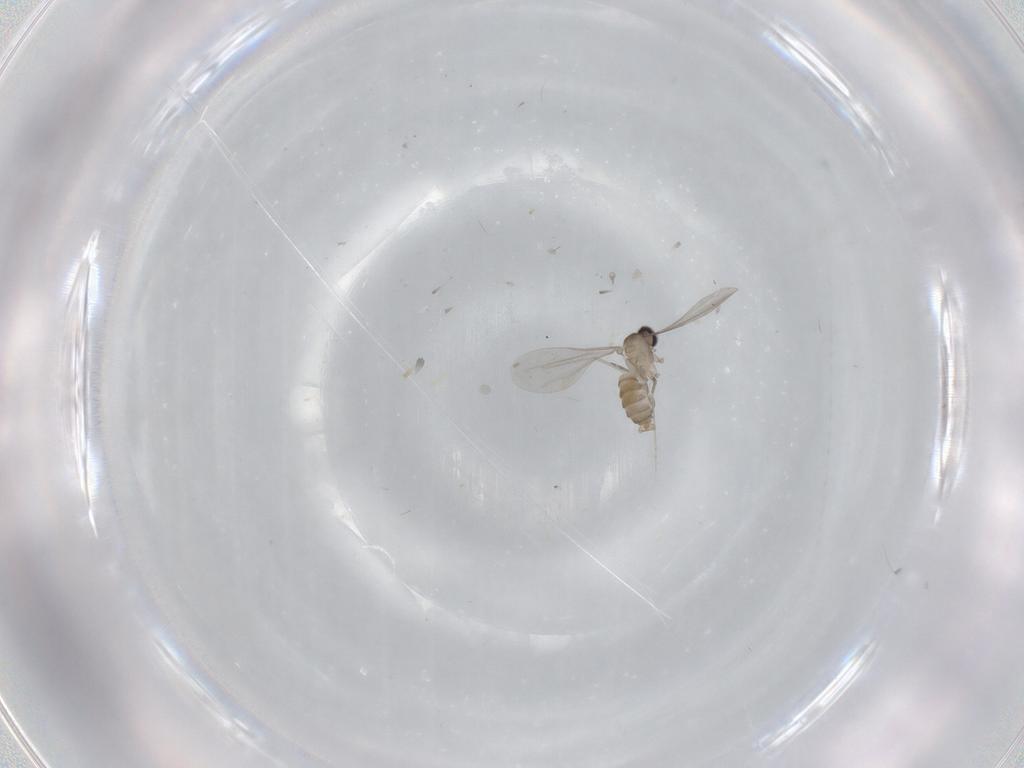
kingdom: Animalia
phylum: Arthropoda
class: Insecta
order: Diptera
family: Cecidomyiidae
